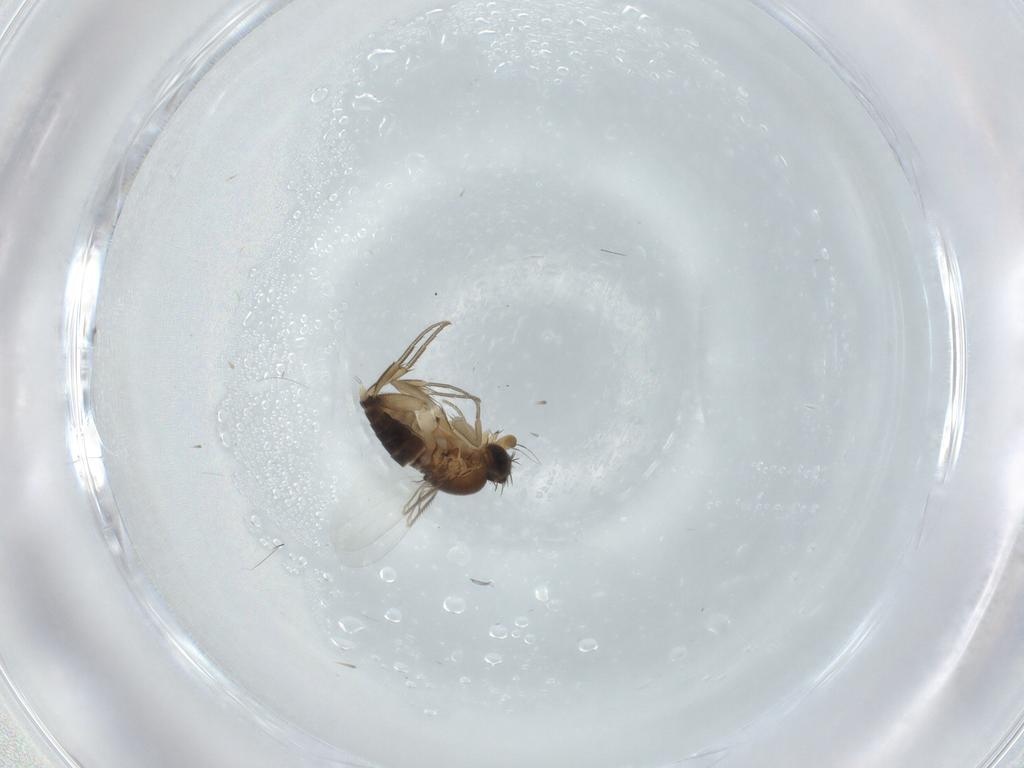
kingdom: Animalia
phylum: Arthropoda
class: Insecta
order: Diptera
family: Phoridae
